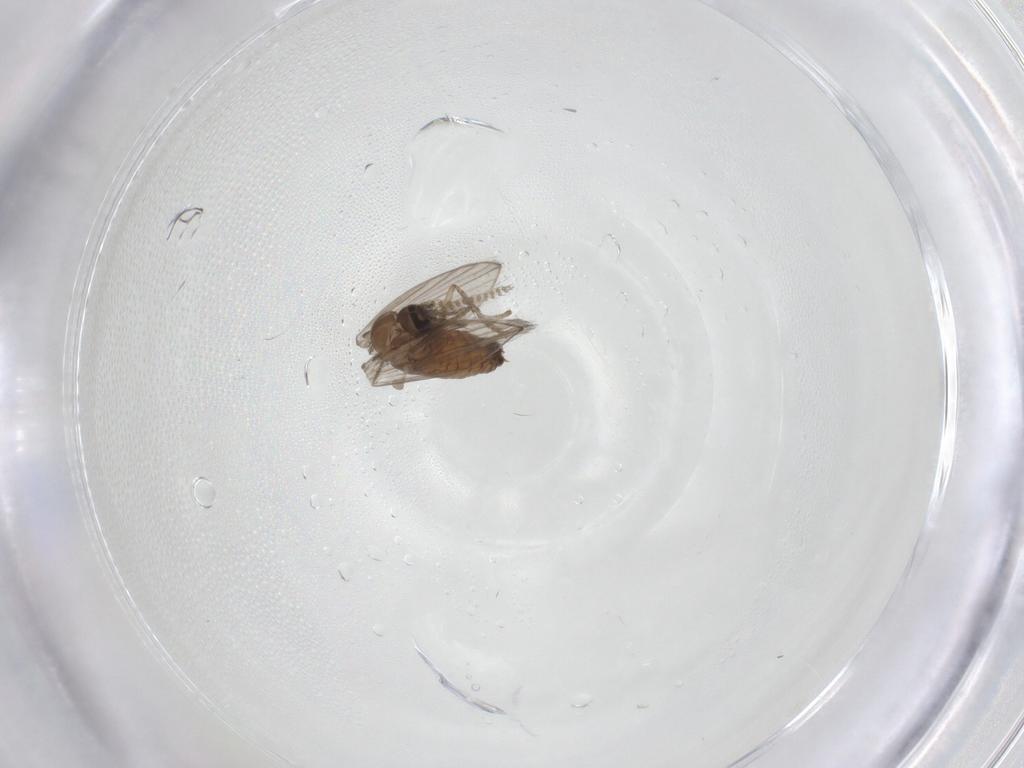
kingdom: Animalia
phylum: Arthropoda
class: Insecta
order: Diptera
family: Psychodidae
